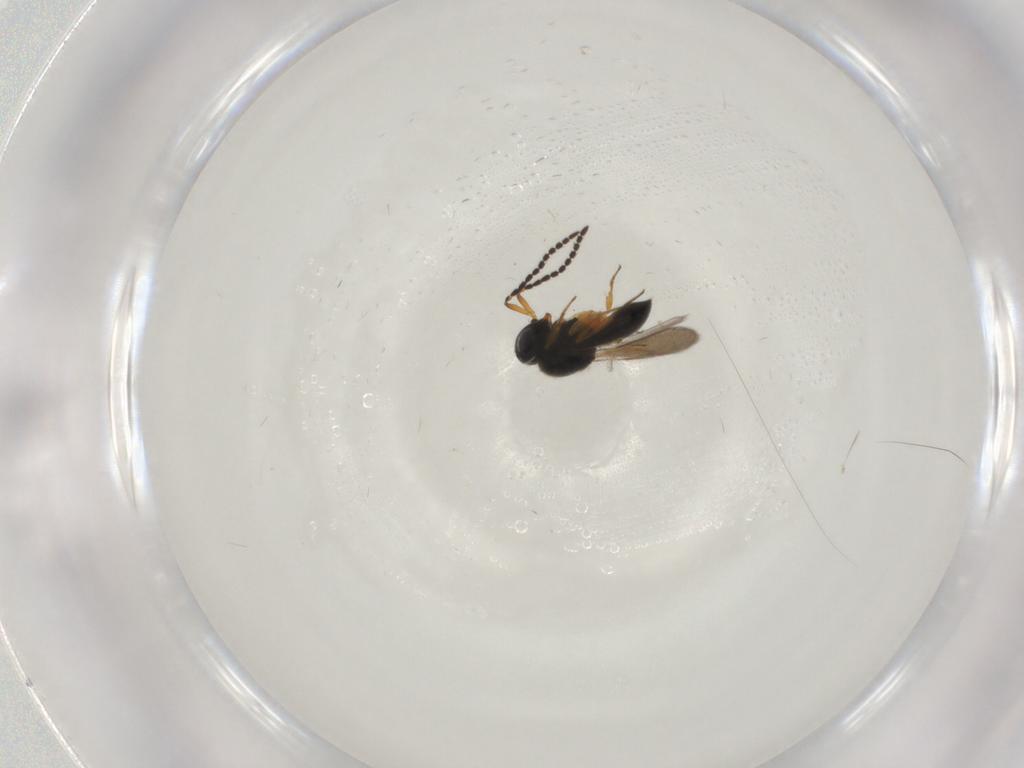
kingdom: Animalia
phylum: Arthropoda
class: Insecta
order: Hymenoptera
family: Scelionidae
